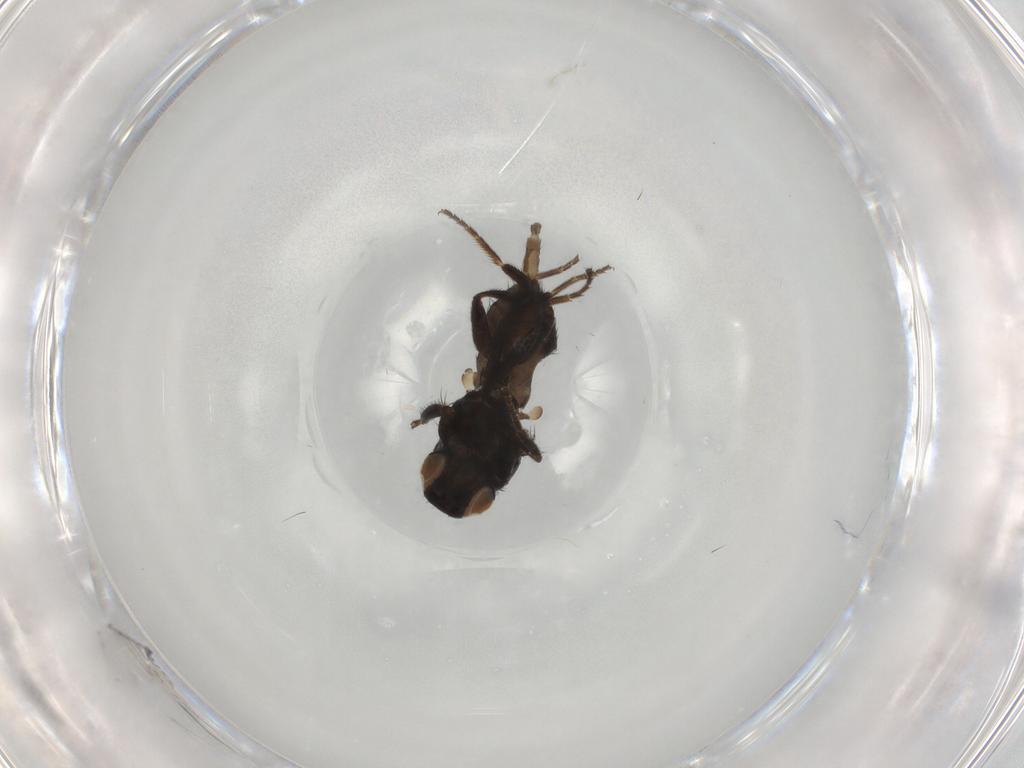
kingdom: Animalia
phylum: Arthropoda
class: Insecta
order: Diptera
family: Milichiidae
